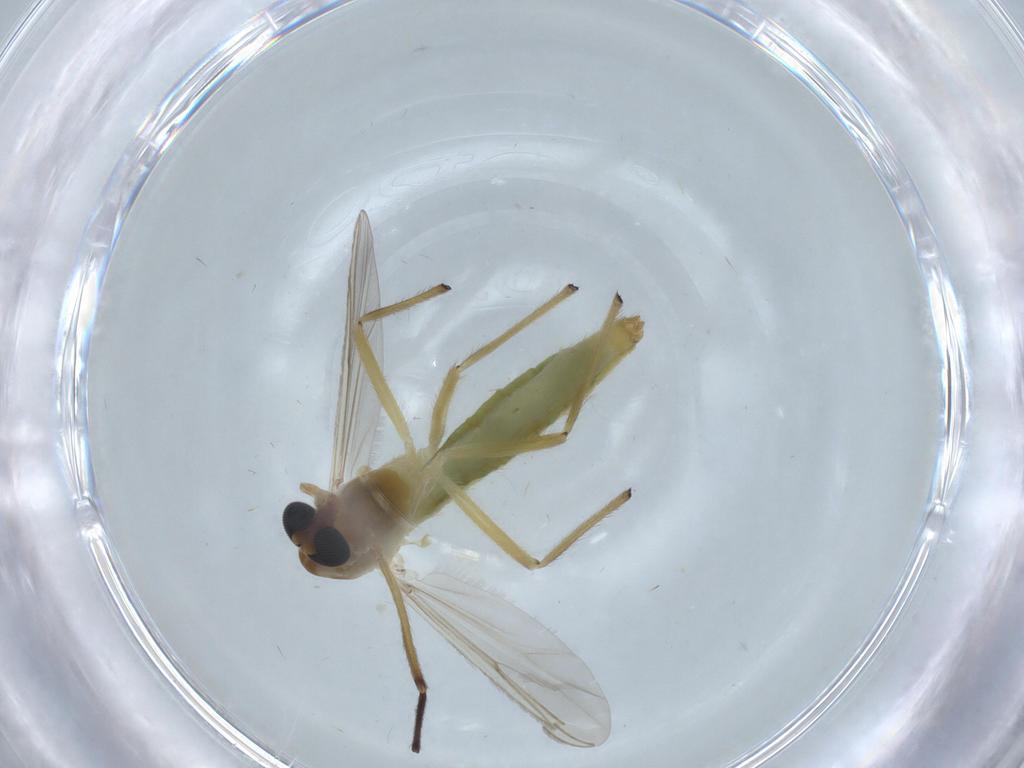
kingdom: Animalia
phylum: Arthropoda
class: Insecta
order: Diptera
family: Chironomidae
